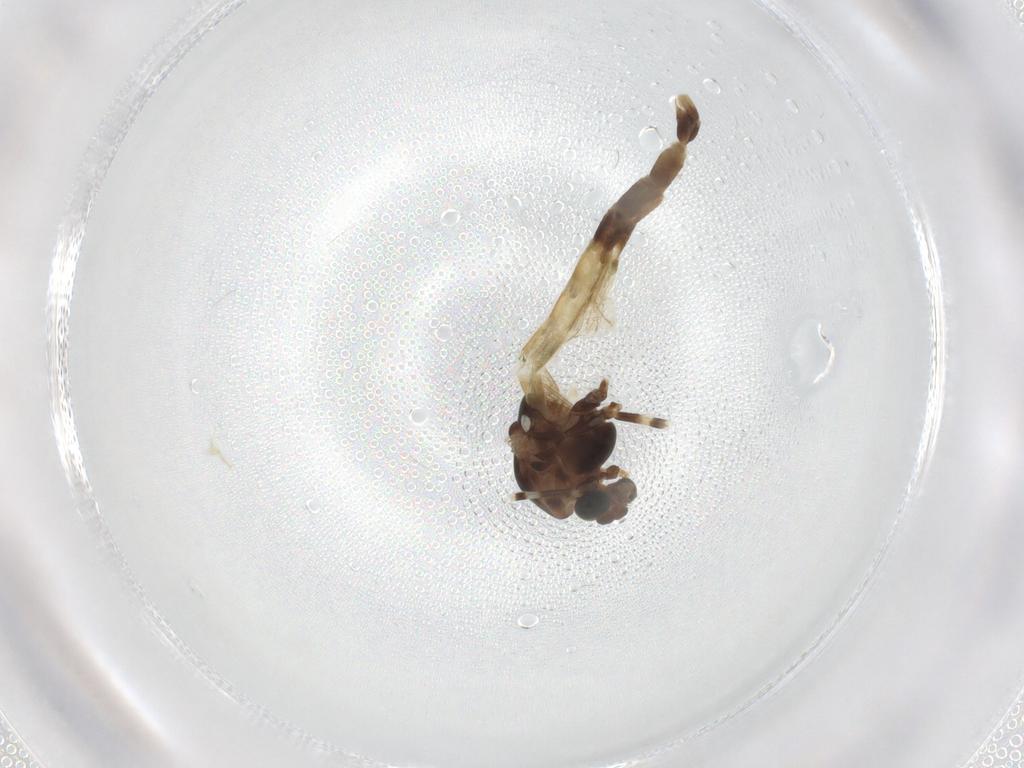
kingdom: Animalia
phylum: Arthropoda
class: Insecta
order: Diptera
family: Chironomidae
